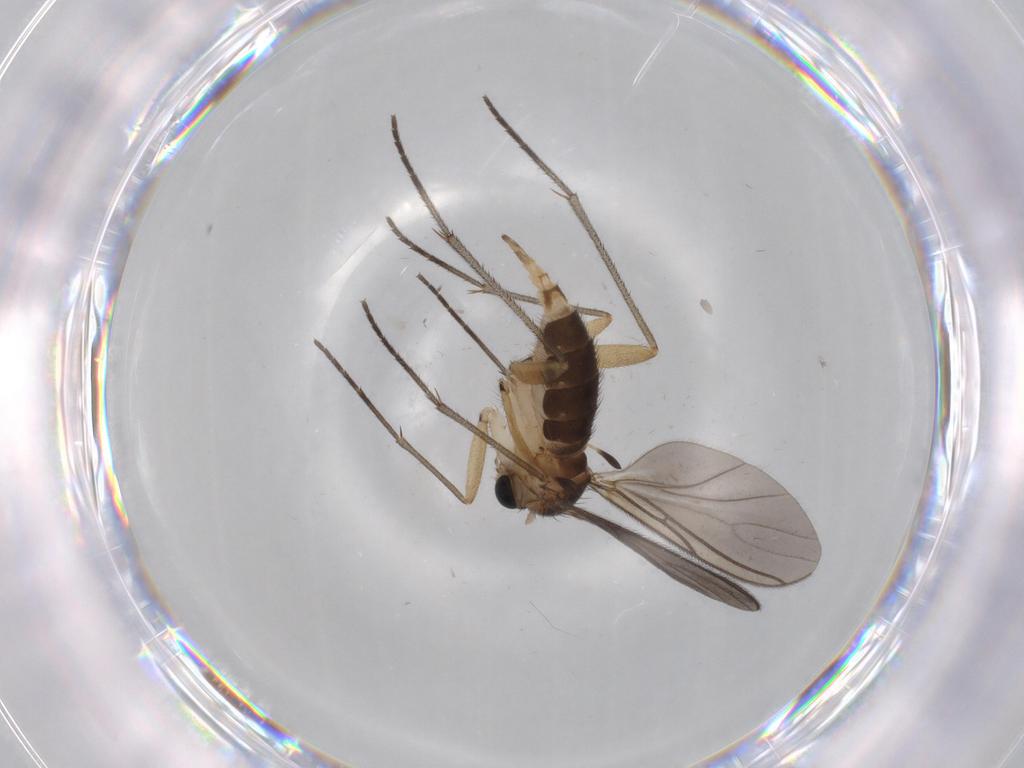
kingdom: Animalia
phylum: Arthropoda
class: Insecta
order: Diptera
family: Sciaridae
